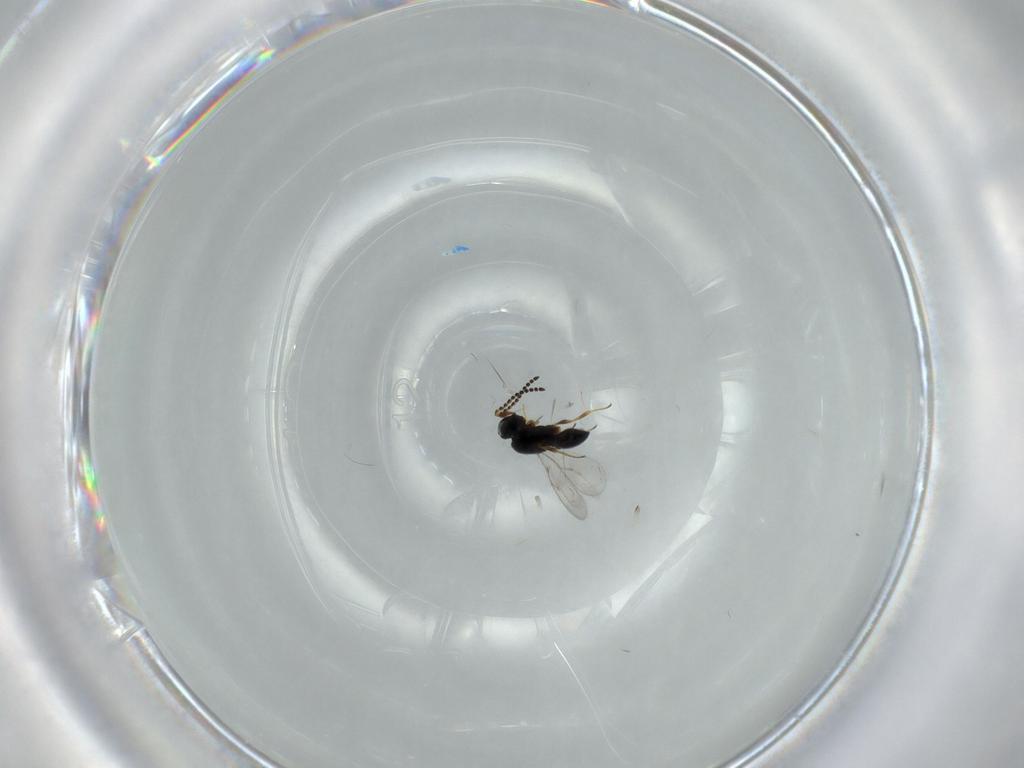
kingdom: Animalia
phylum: Arthropoda
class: Insecta
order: Hymenoptera
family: Scelionidae
